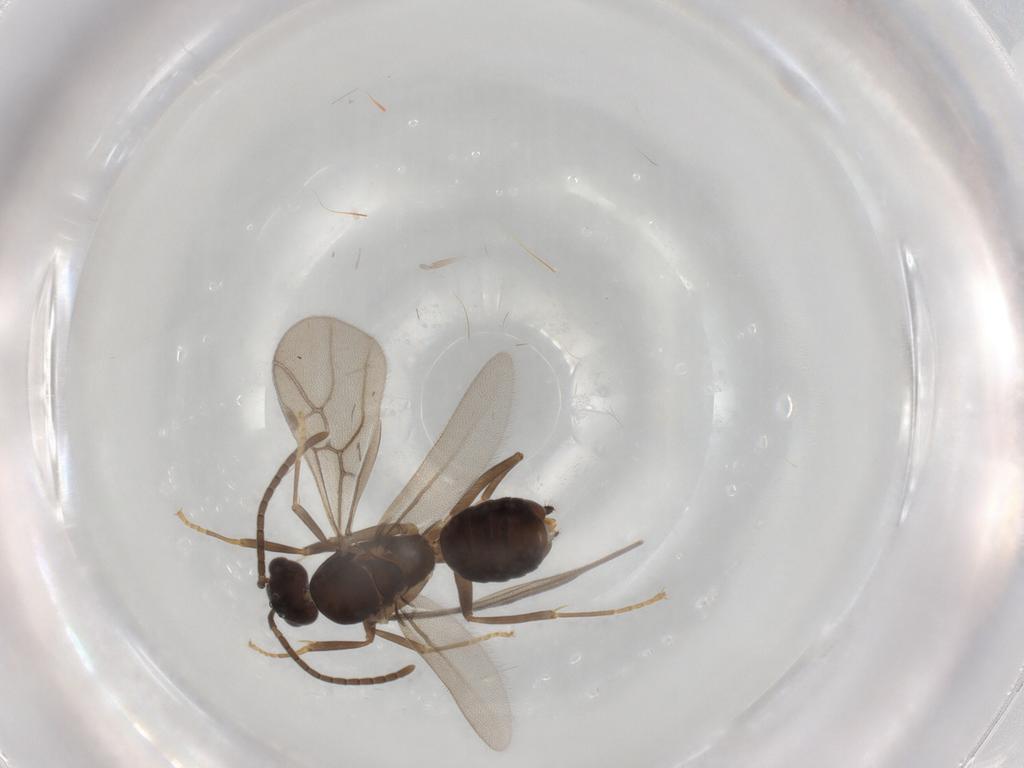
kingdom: Animalia
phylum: Arthropoda
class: Insecta
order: Hymenoptera
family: Formicidae
